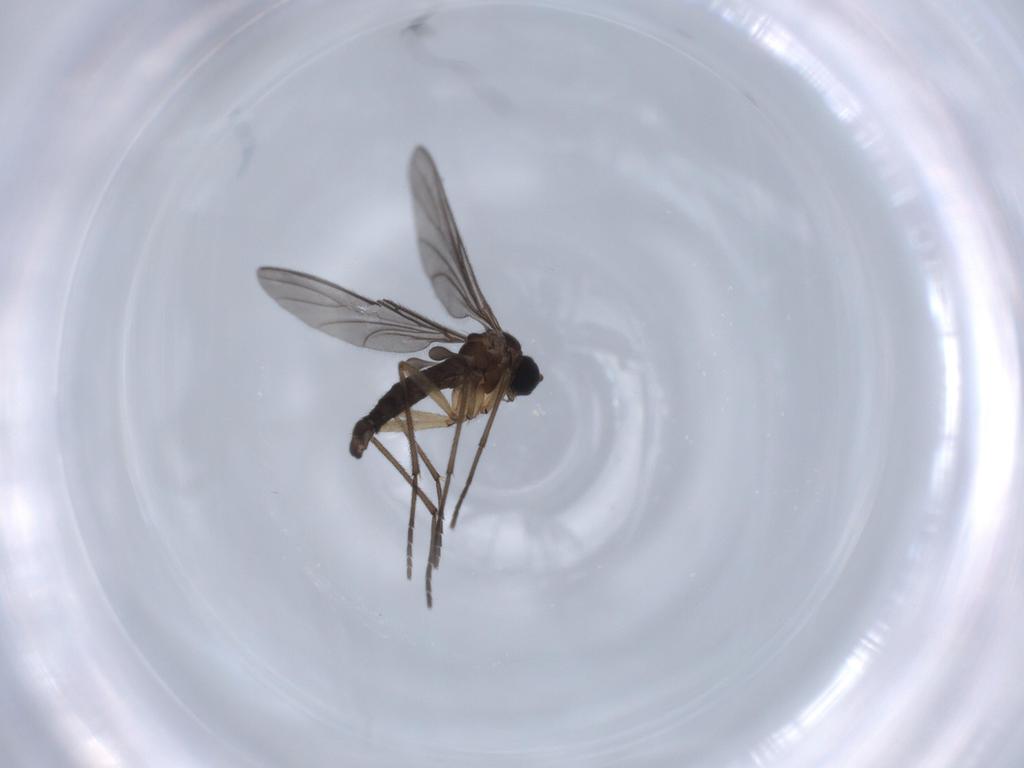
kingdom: Animalia
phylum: Arthropoda
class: Insecta
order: Diptera
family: Sciaridae
